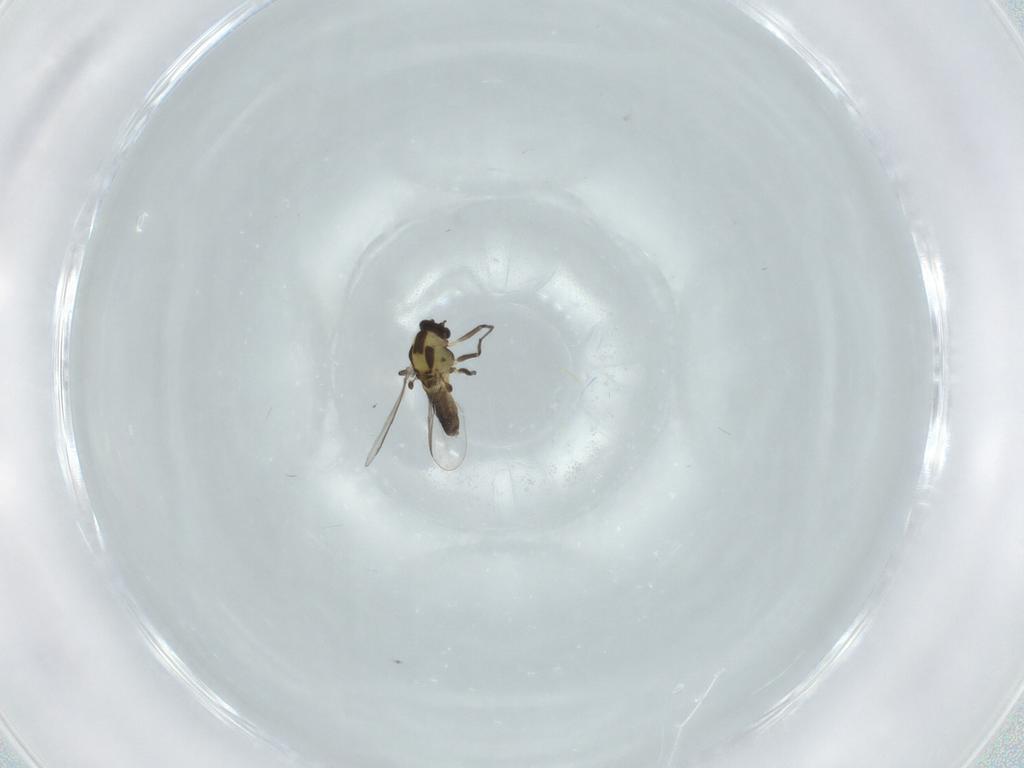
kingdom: Animalia
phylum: Arthropoda
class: Insecta
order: Diptera
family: Chironomidae
